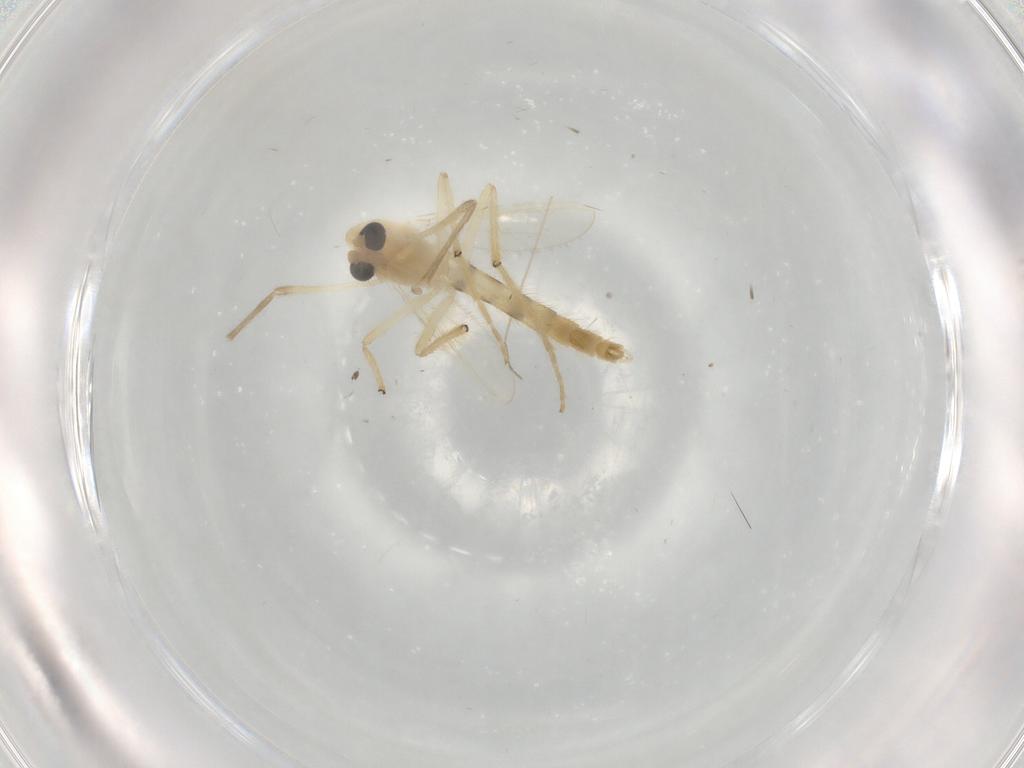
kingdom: Animalia
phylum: Arthropoda
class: Insecta
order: Diptera
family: Chironomidae
